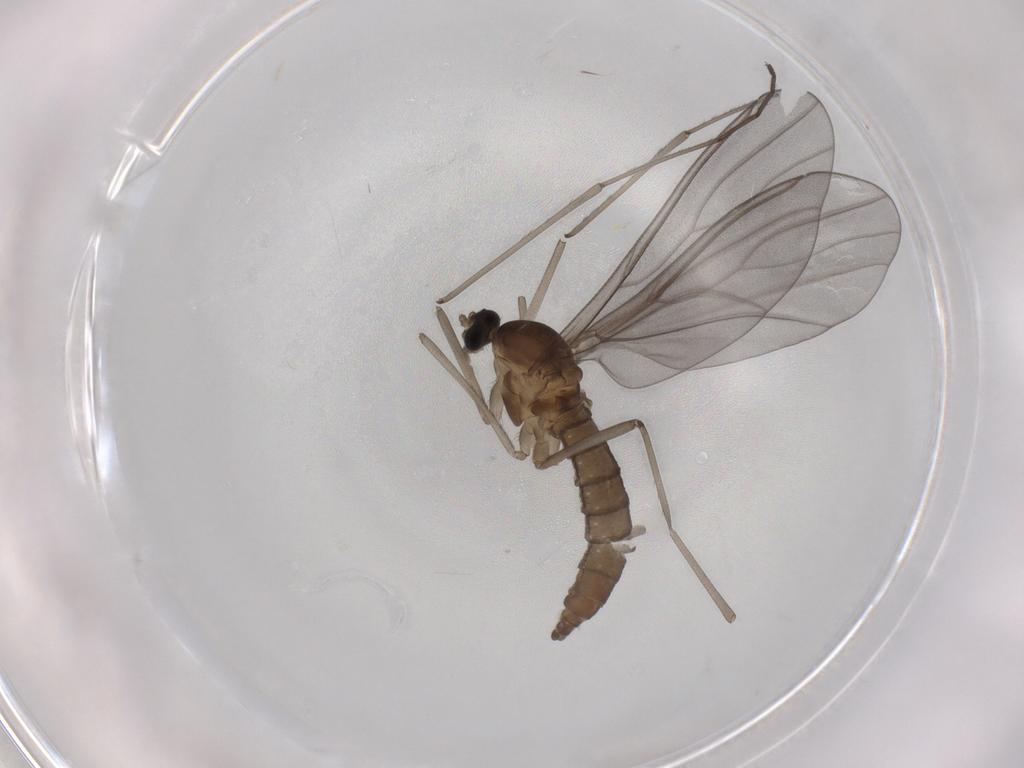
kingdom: Animalia
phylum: Arthropoda
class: Insecta
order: Diptera
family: Cecidomyiidae
